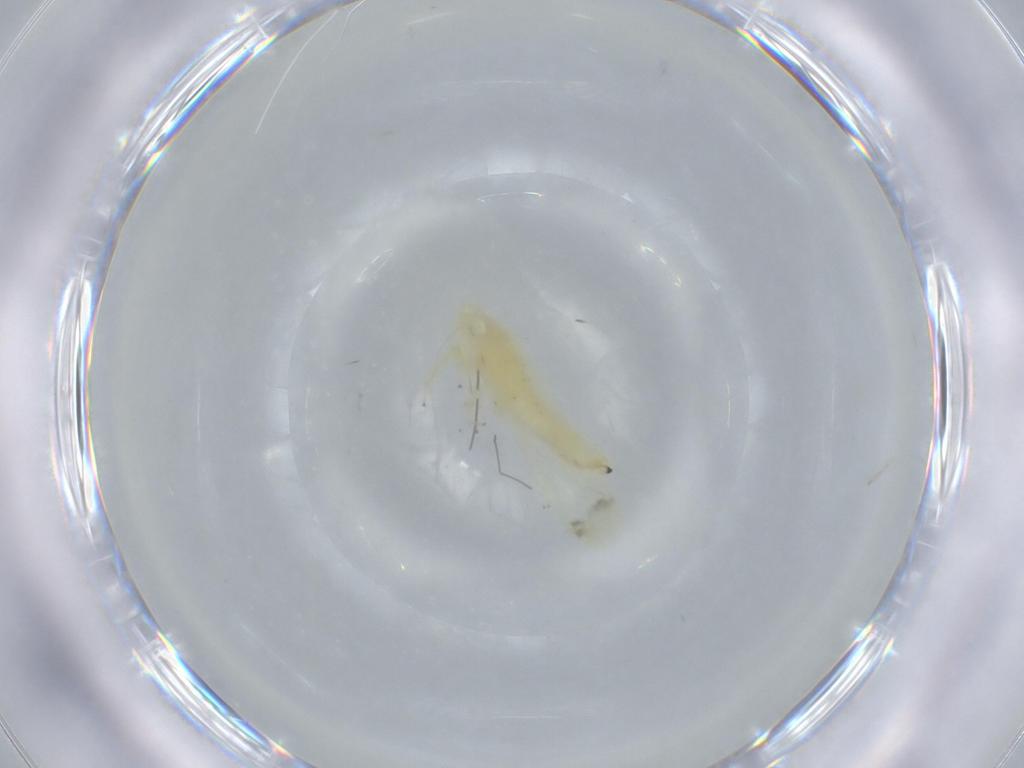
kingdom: Animalia
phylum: Arthropoda
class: Insecta
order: Hemiptera
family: Cicadellidae
